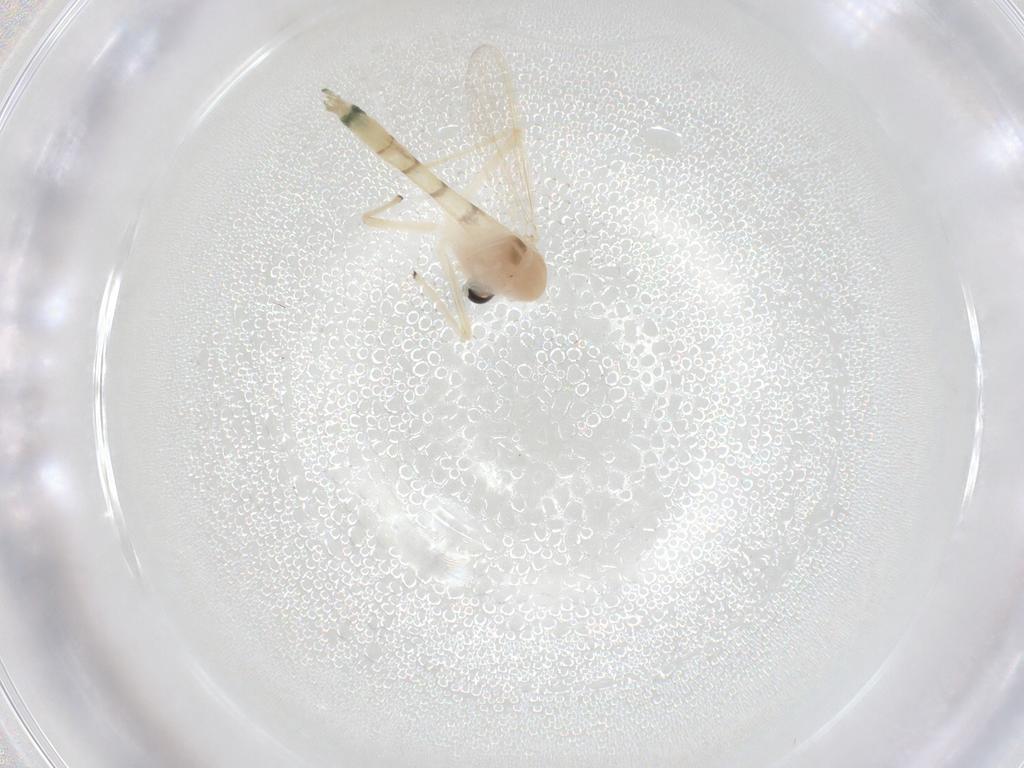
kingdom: Animalia
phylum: Arthropoda
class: Insecta
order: Diptera
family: Chironomidae
